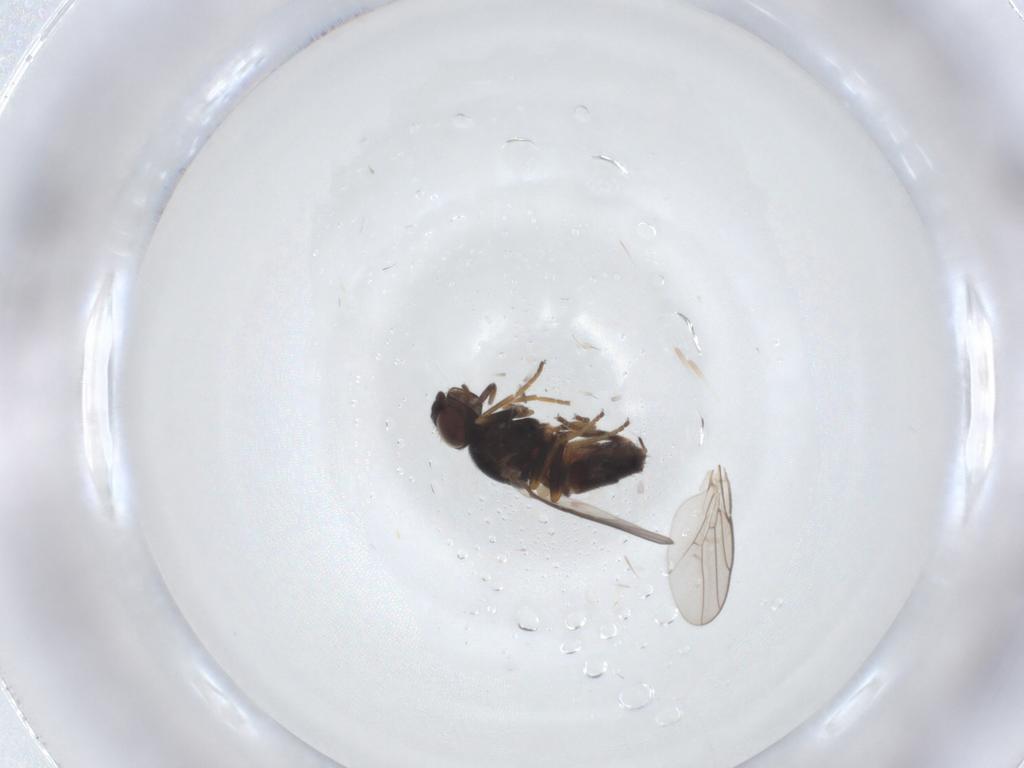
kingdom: Animalia
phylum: Arthropoda
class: Insecta
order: Diptera
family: Chloropidae
